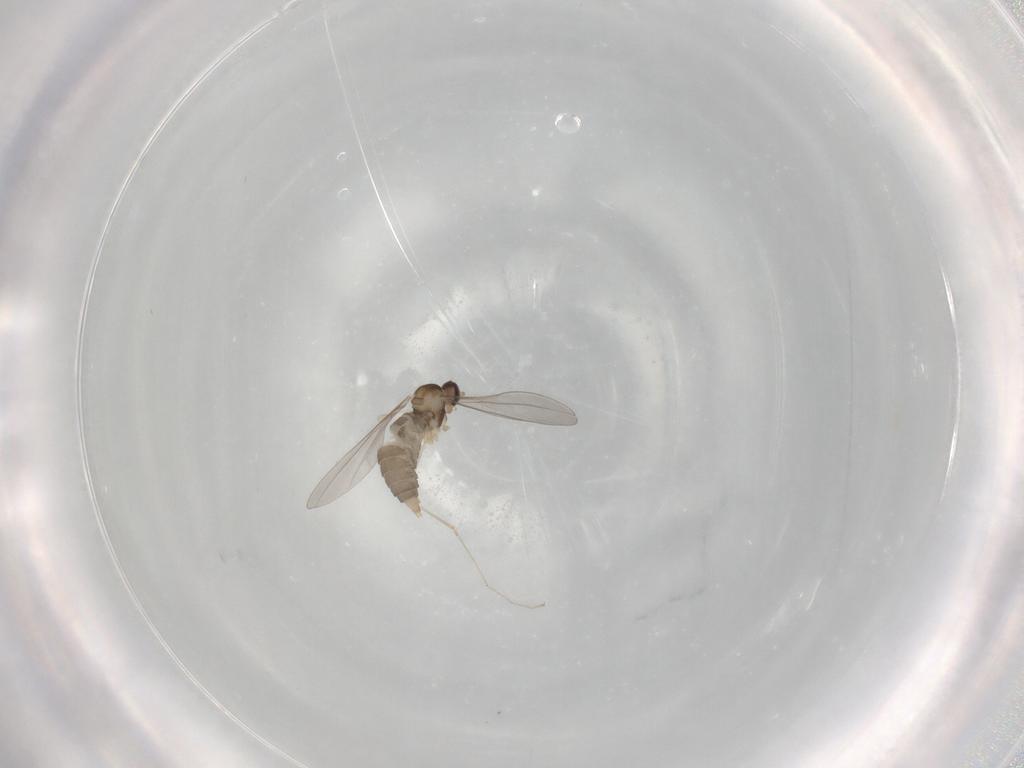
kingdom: Animalia
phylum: Arthropoda
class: Insecta
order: Diptera
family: Cecidomyiidae
